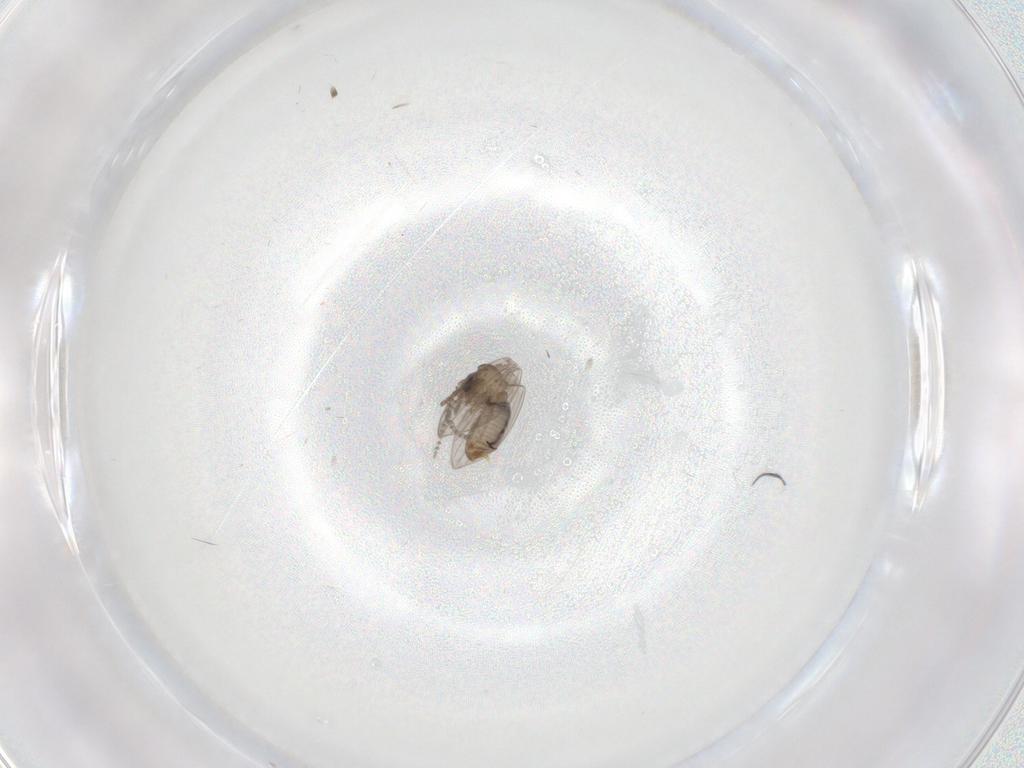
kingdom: Animalia
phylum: Arthropoda
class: Insecta
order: Diptera
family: Psychodidae
